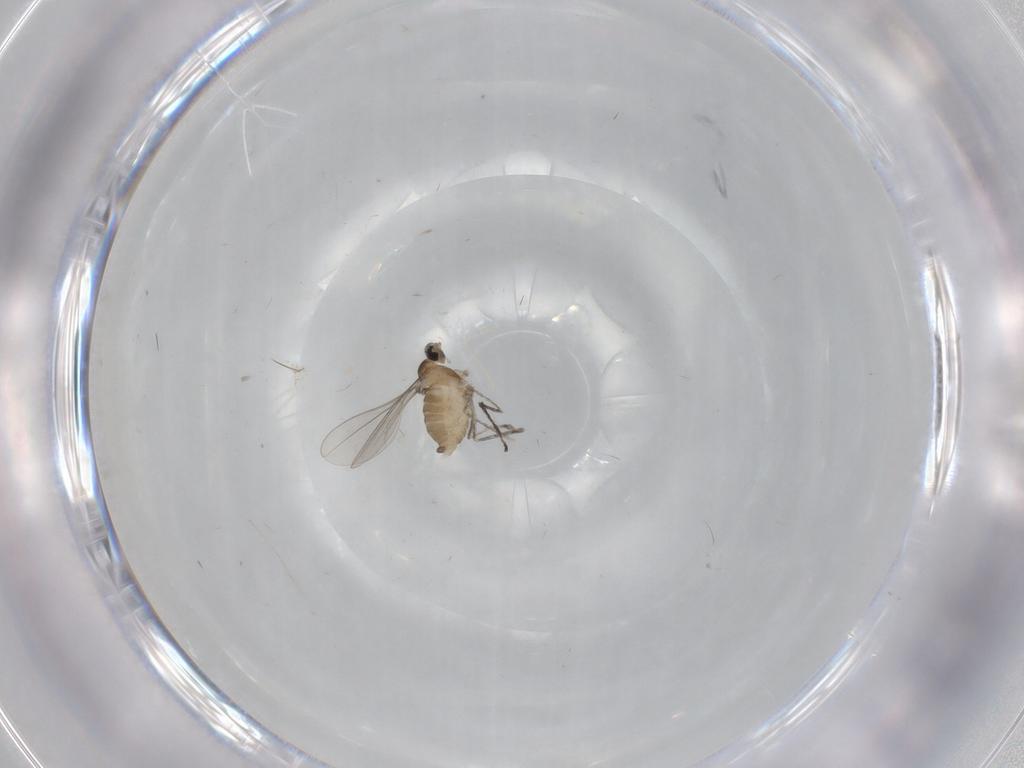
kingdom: Animalia
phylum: Arthropoda
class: Insecta
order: Diptera
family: Cecidomyiidae
